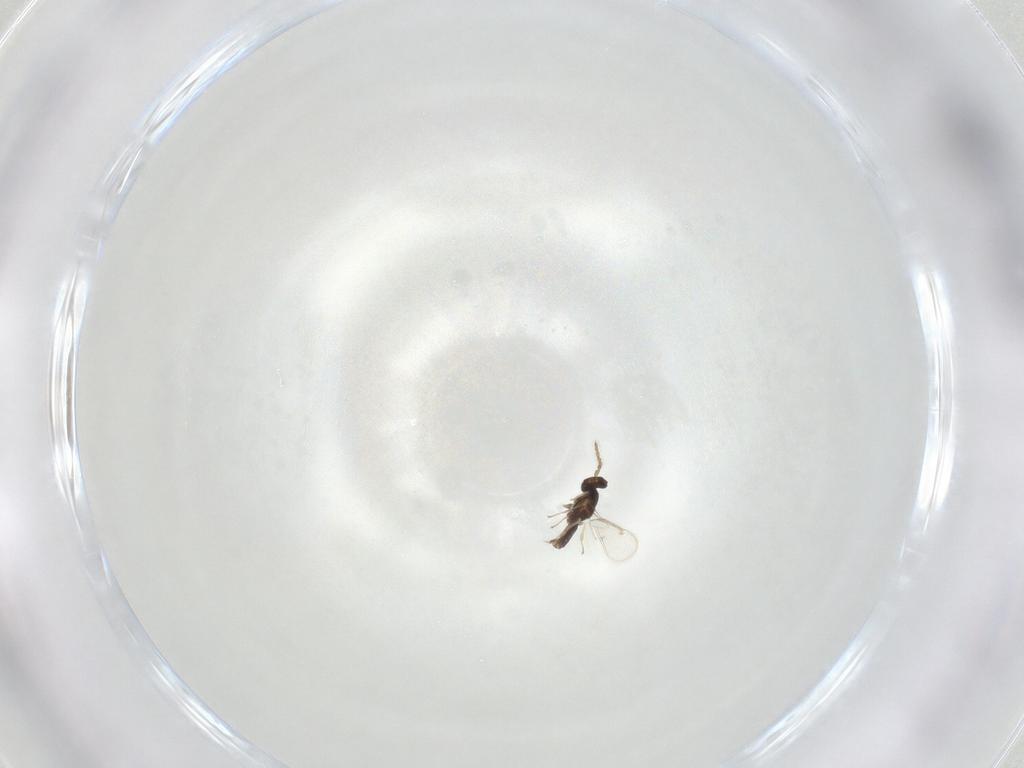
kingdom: Animalia
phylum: Arthropoda
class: Insecta
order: Hymenoptera
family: Eulophidae
